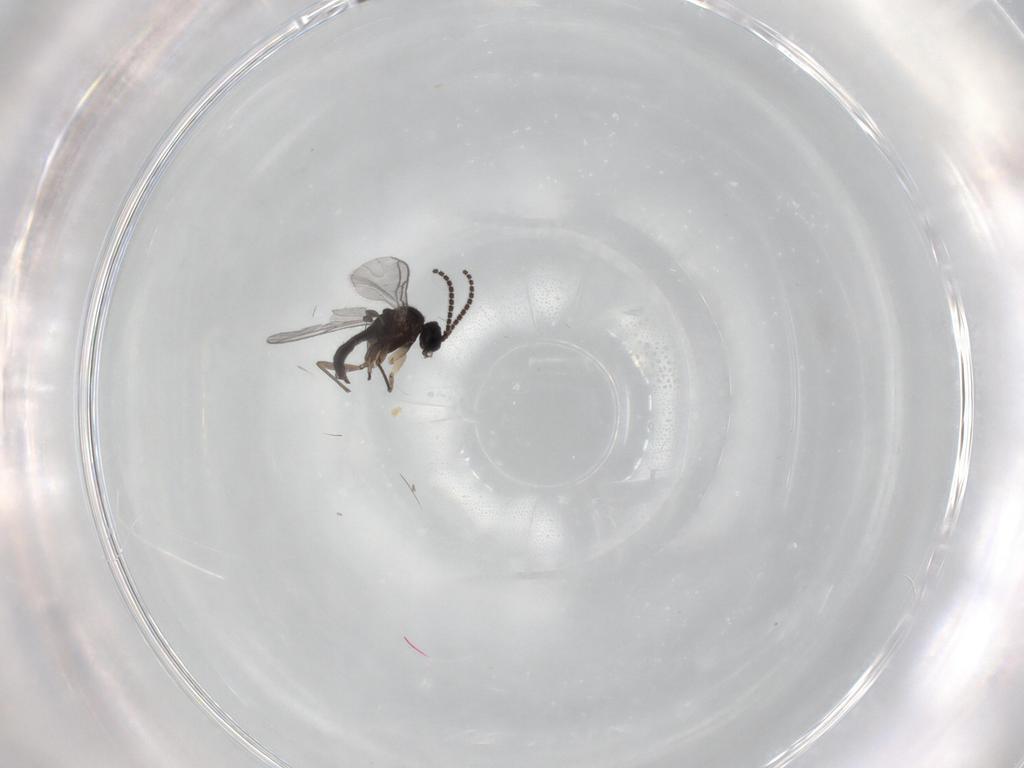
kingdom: Animalia
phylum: Arthropoda
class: Insecta
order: Diptera
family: Sciaridae
